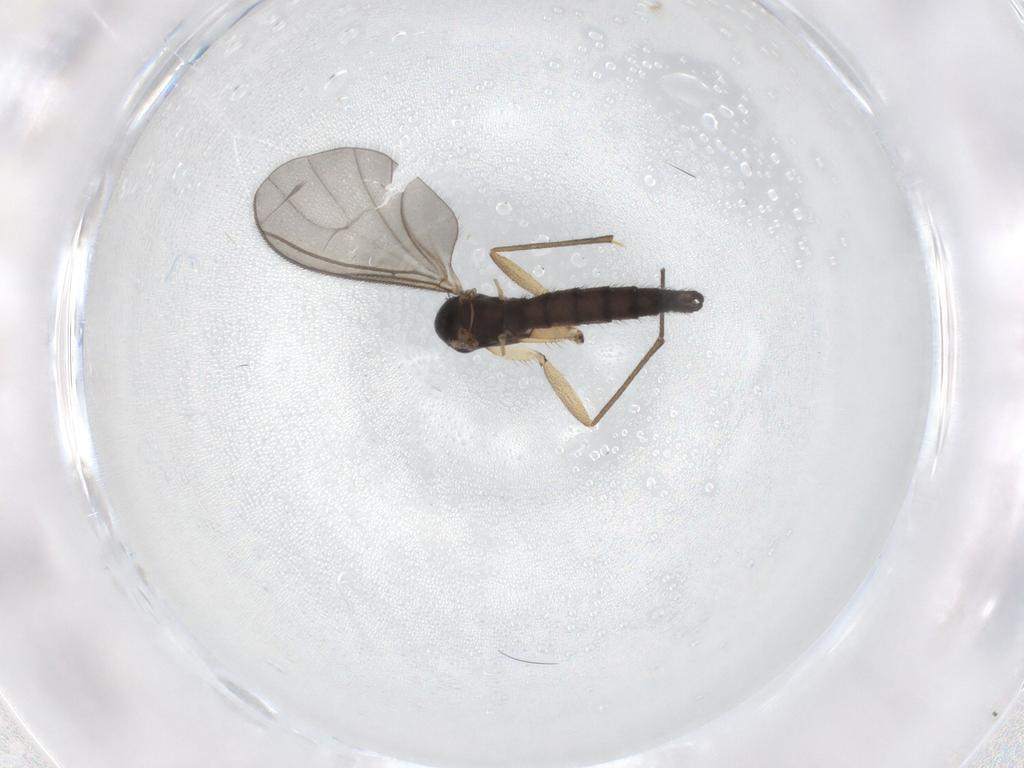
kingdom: Animalia
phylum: Arthropoda
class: Insecta
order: Diptera
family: Sciaridae
